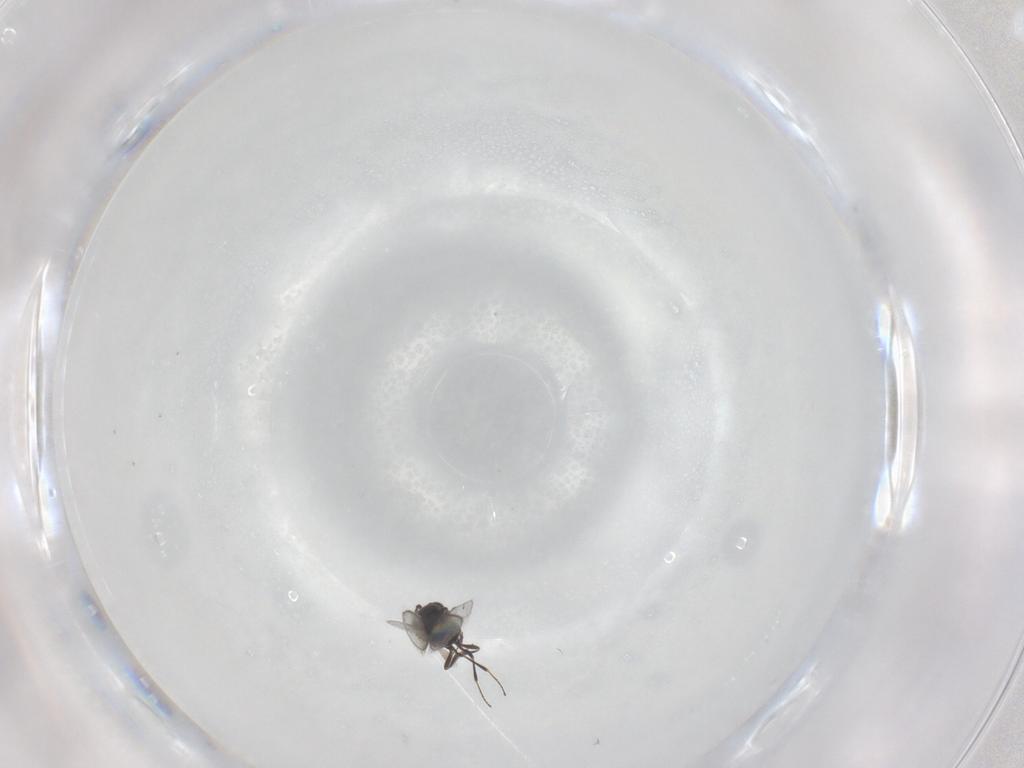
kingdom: Animalia
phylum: Arthropoda
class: Insecta
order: Hymenoptera
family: Scelionidae
